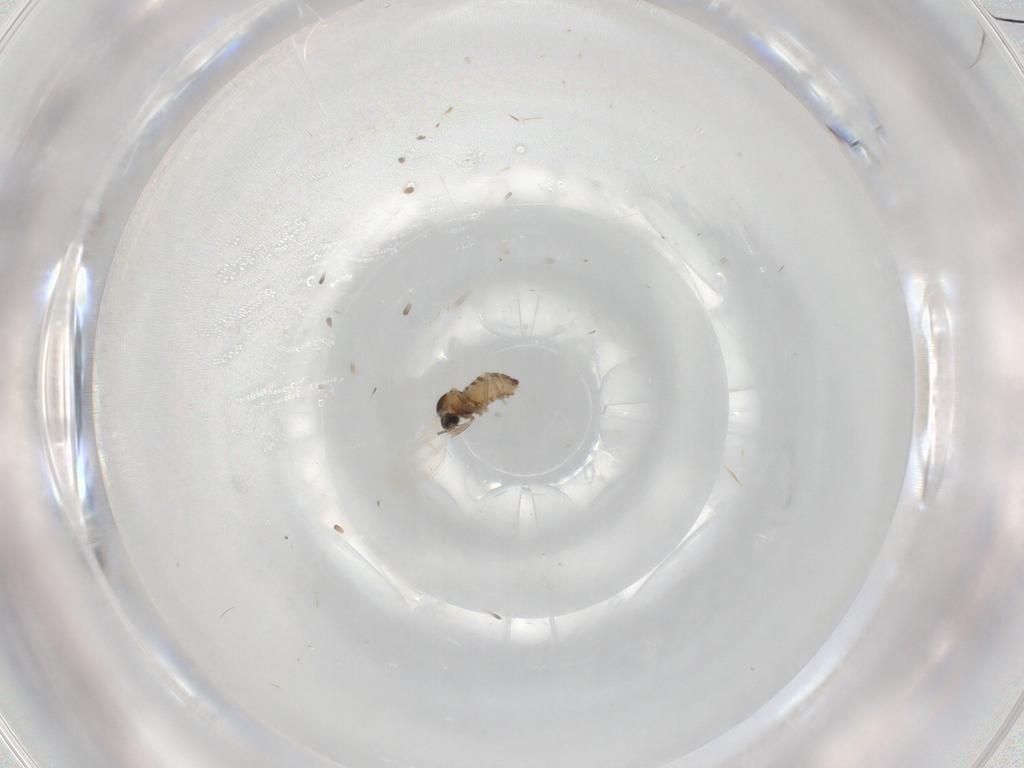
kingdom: Animalia
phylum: Arthropoda
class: Insecta
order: Diptera
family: Cecidomyiidae
